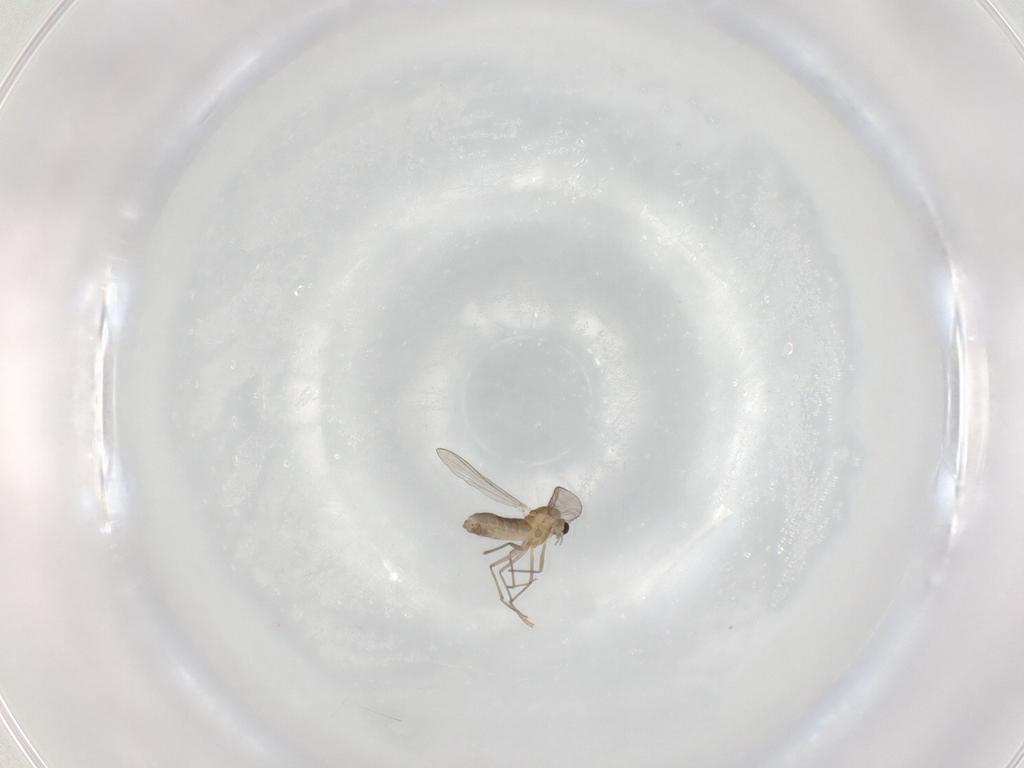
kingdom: Animalia
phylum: Arthropoda
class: Insecta
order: Diptera
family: Chironomidae
